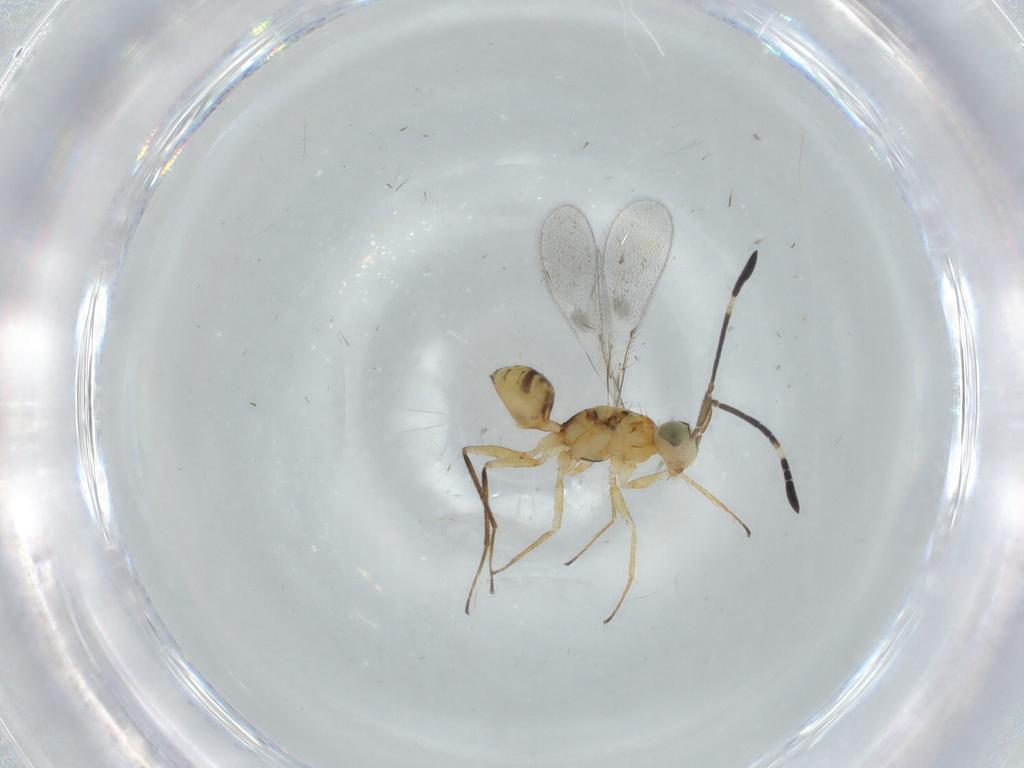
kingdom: Animalia
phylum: Arthropoda
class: Insecta
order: Hymenoptera
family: Mymaridae
